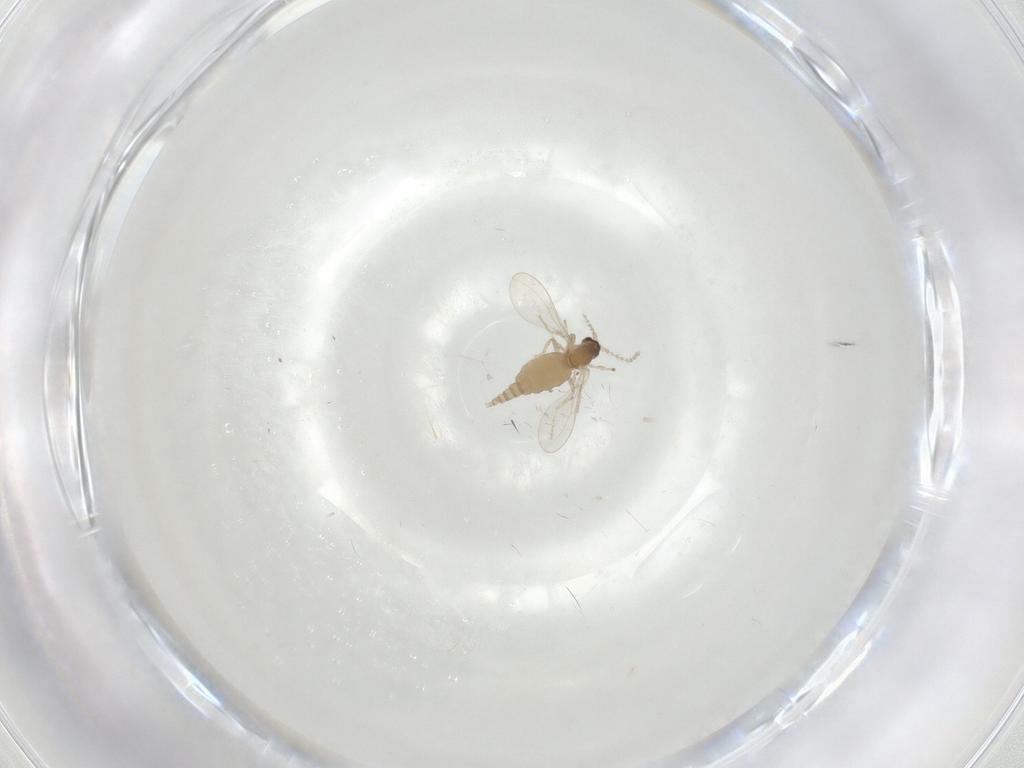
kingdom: Animalia
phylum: Arthropoda
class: Insecta
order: Diptera
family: Cecidomyiidae
